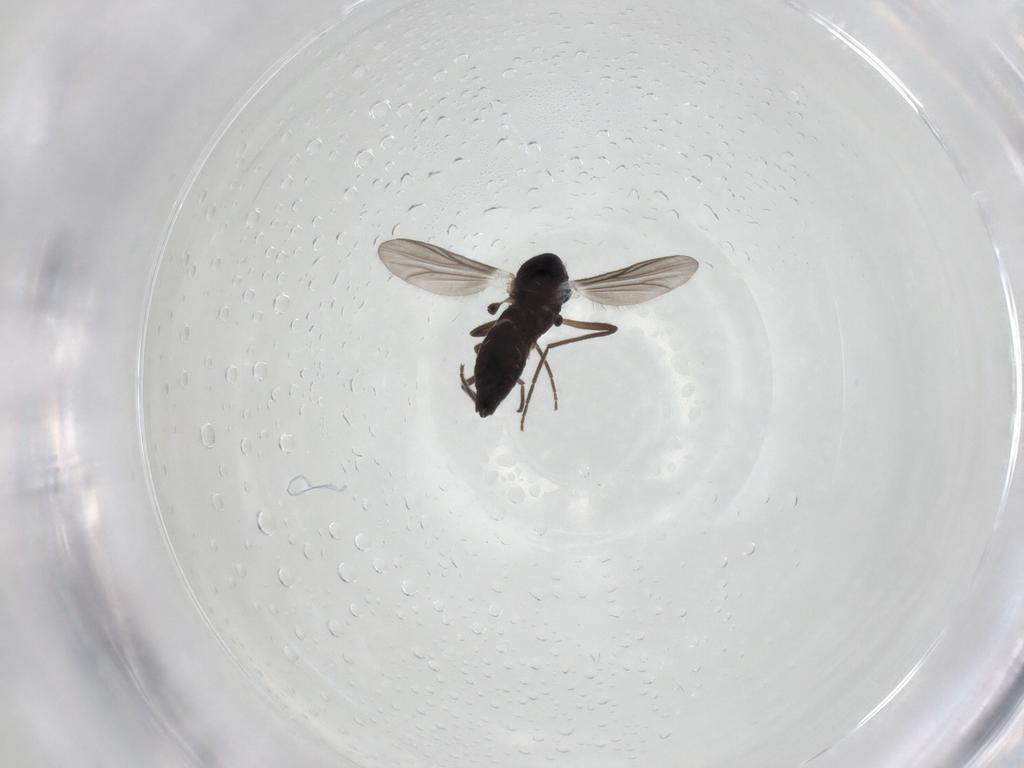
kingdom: Animalia
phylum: Arthropoda
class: Insecta
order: Diptera
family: Chironomidae
